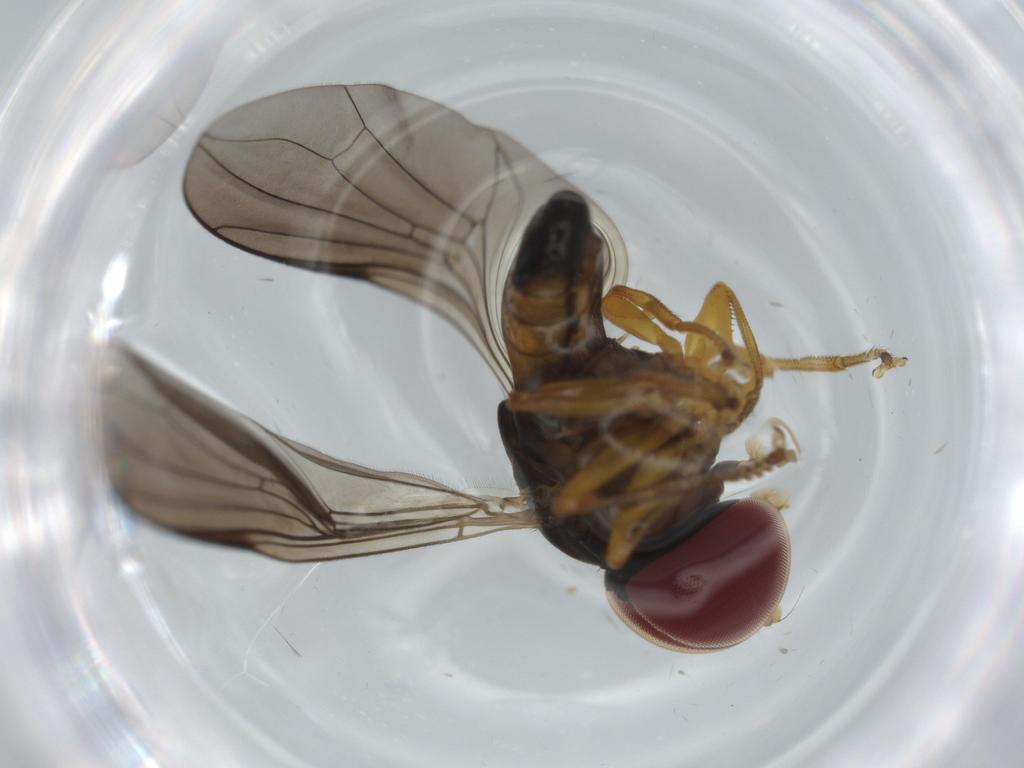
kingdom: Animalia
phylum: Arthropoda
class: Insecta
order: Diptera
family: Pipunculidae
